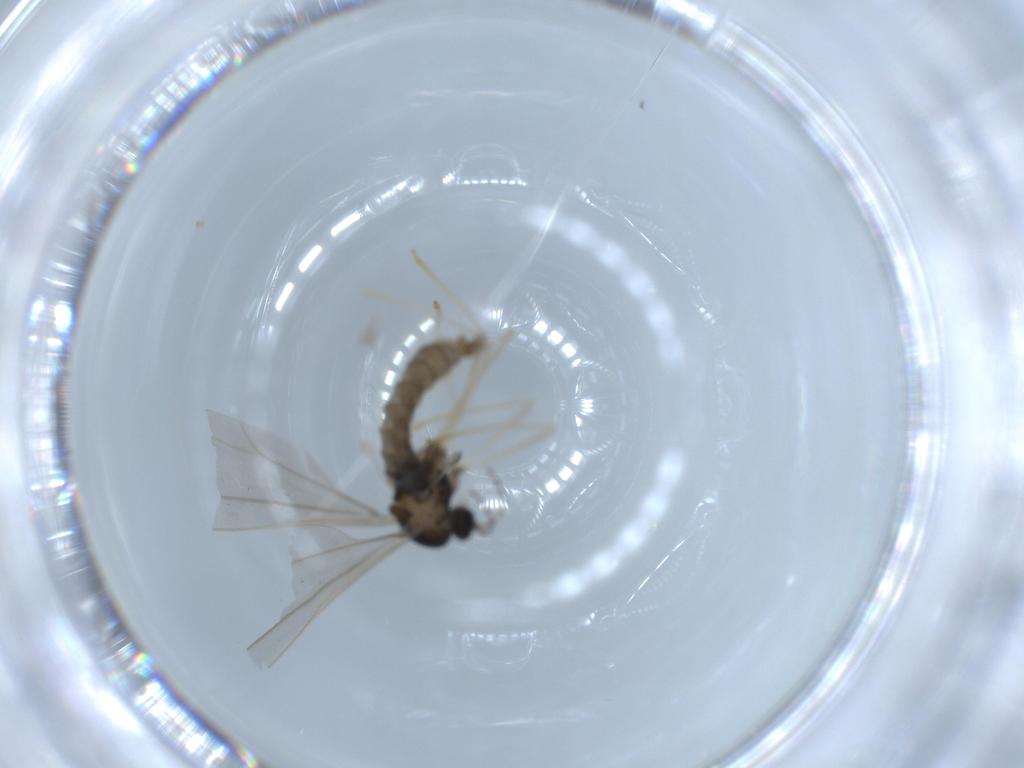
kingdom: Animalia
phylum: Arthropoda
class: Insecta
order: Diptera
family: Cecidomyiidae
